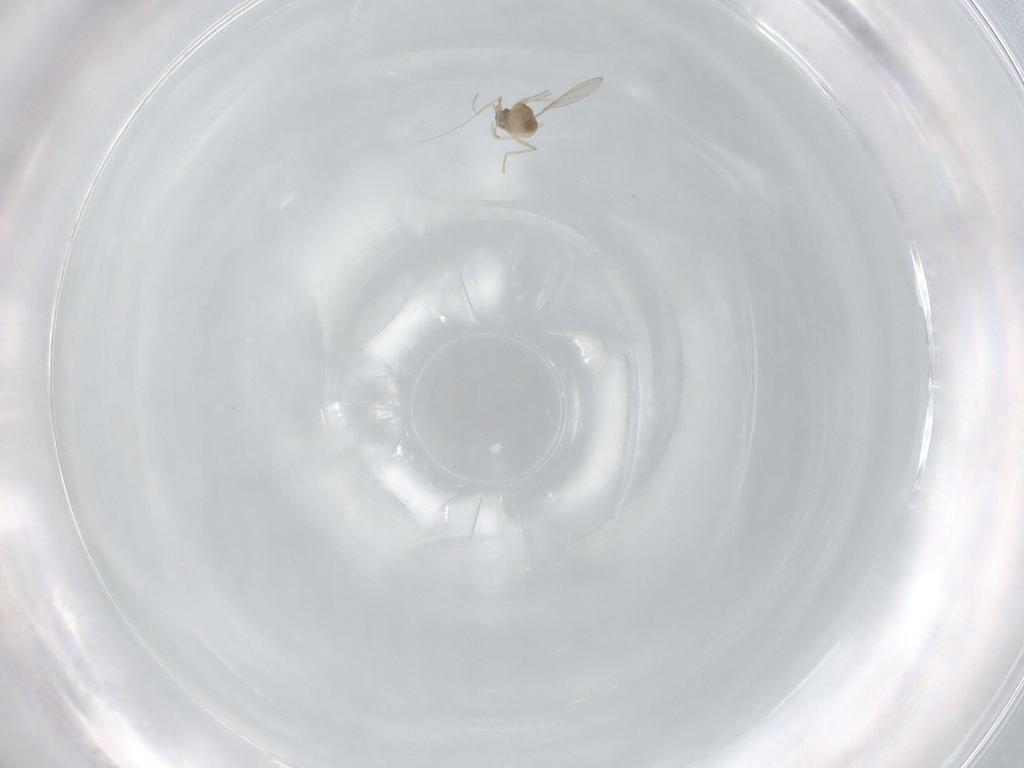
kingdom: Animalia
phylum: Arthropoda
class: Insecta
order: Diptera
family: Cecidomyiidae
